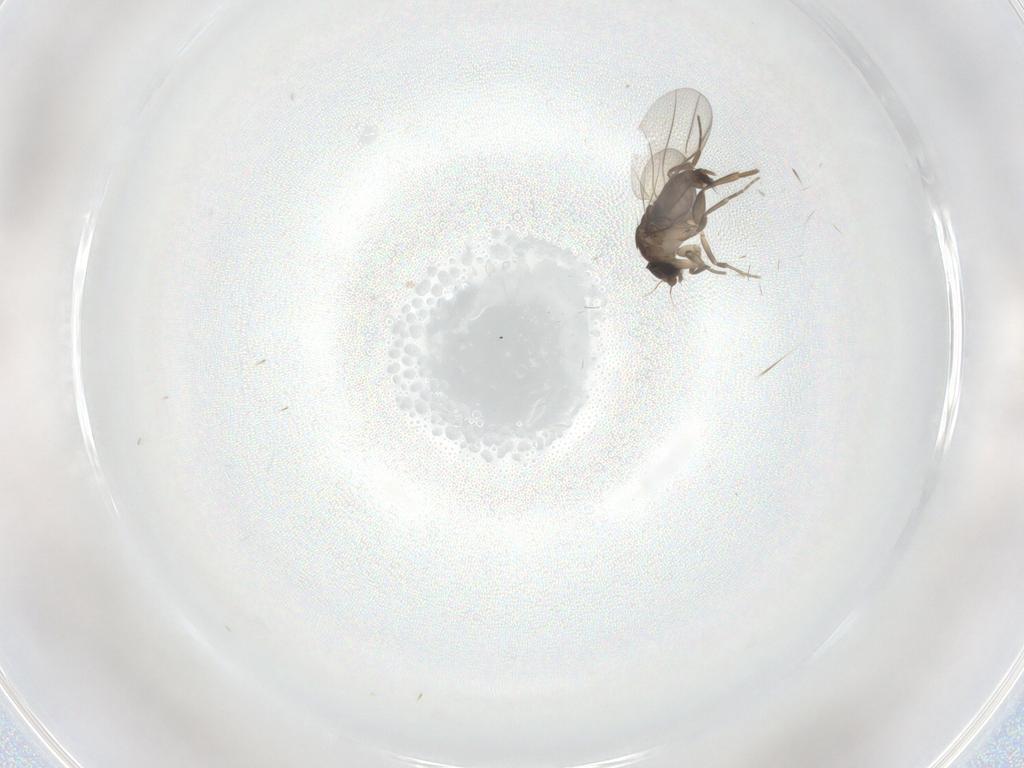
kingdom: Animalia
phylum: Arthropoda
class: Insecta
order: Diptera
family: Phoridae
